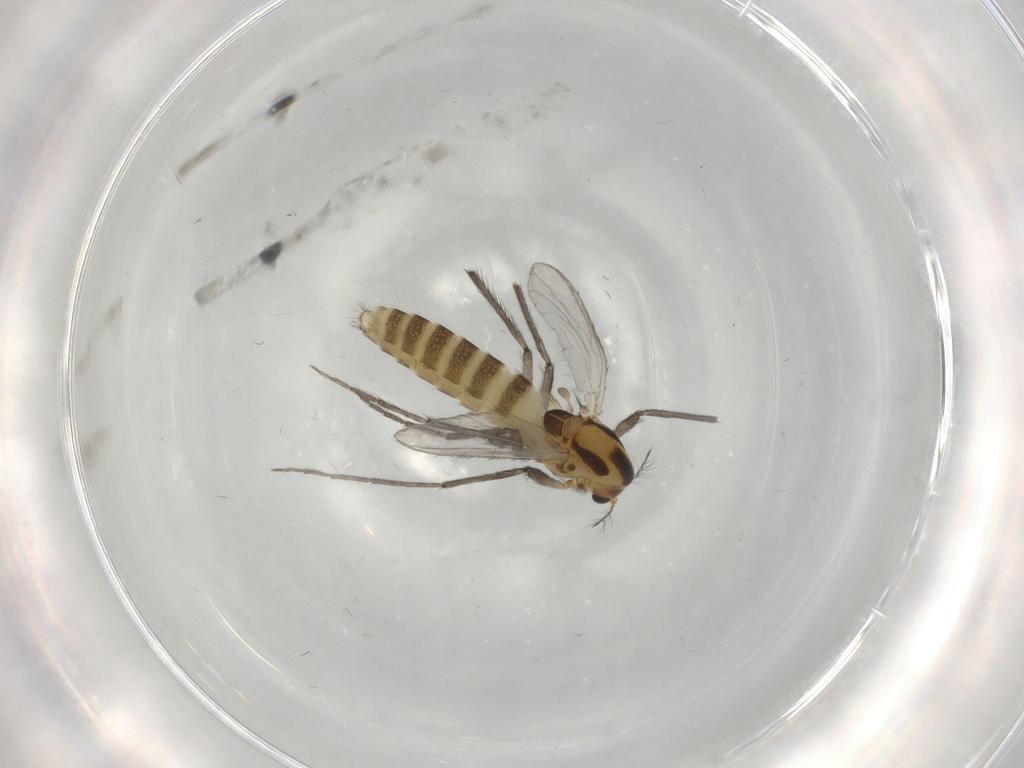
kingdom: Animalia
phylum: Arthropoda
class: Insecta
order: Diptera
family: Chironomidae
